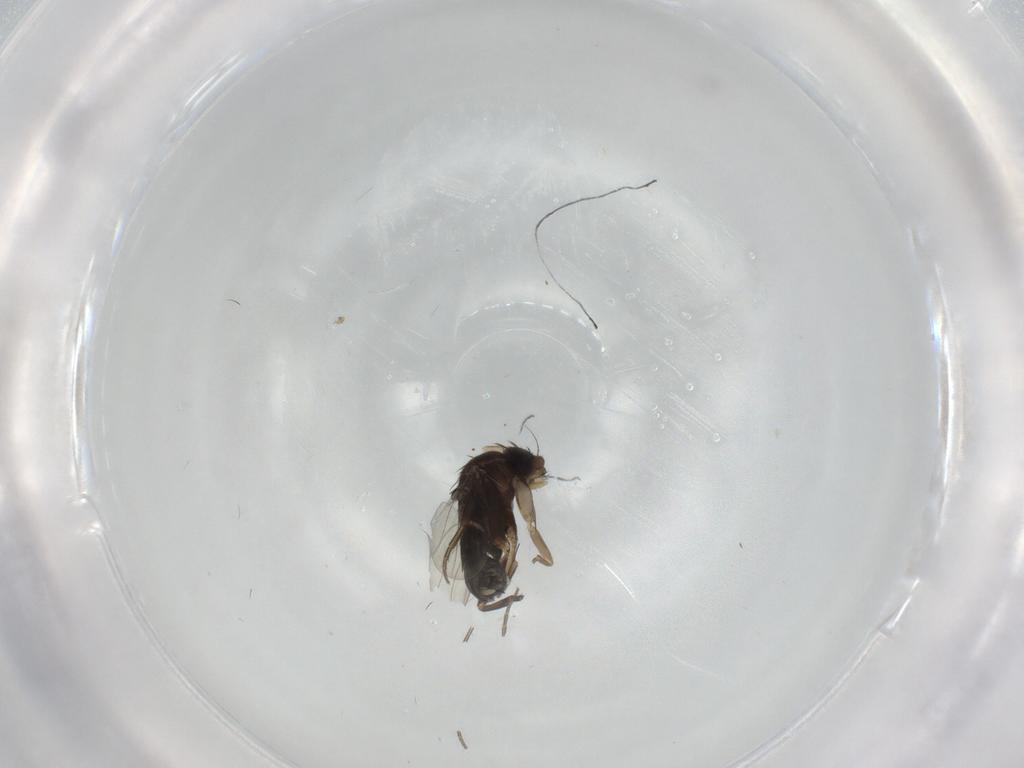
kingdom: Animalia
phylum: Arthropoda
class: Insecta
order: Diptera
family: Phoridae
